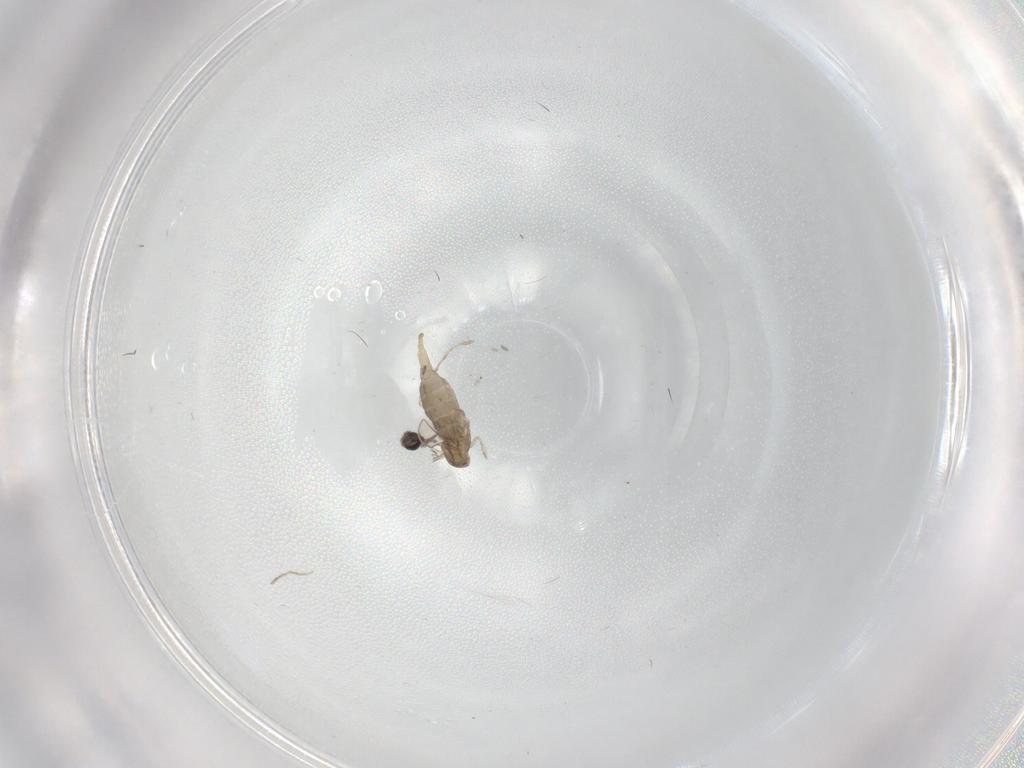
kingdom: Animalia
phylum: Arthropoda
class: Insecta
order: Diptera
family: Cecidomyiidae
